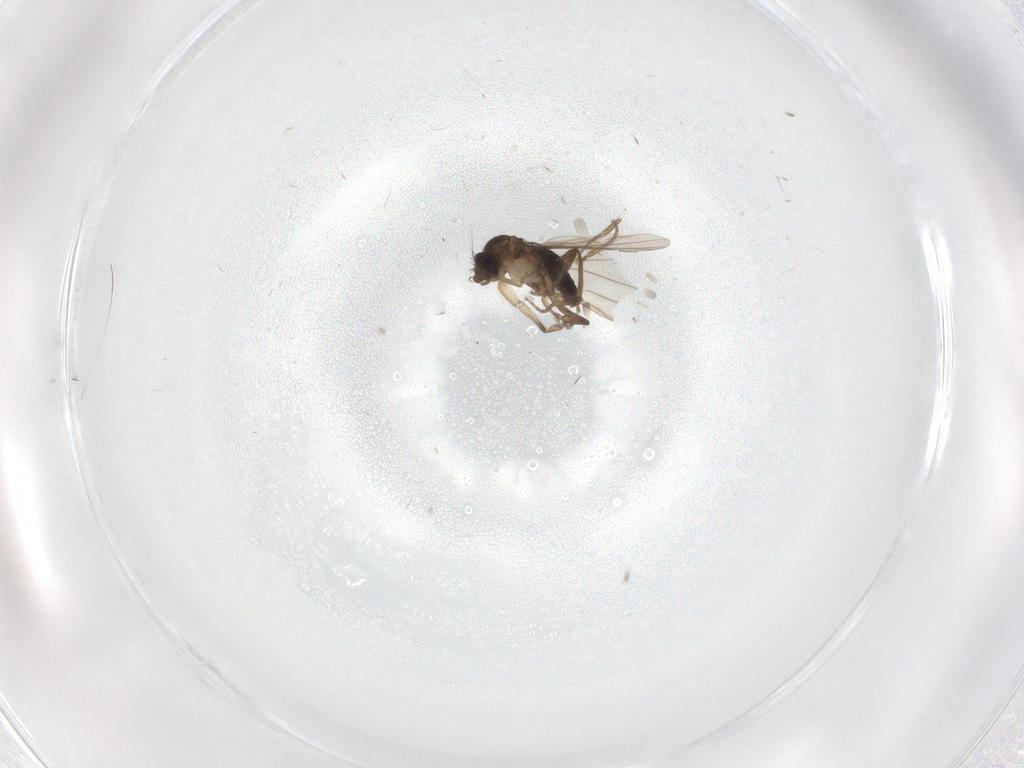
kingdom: Animalia
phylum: Arthropoda
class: Insecta
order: Diptera
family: Phoridae
